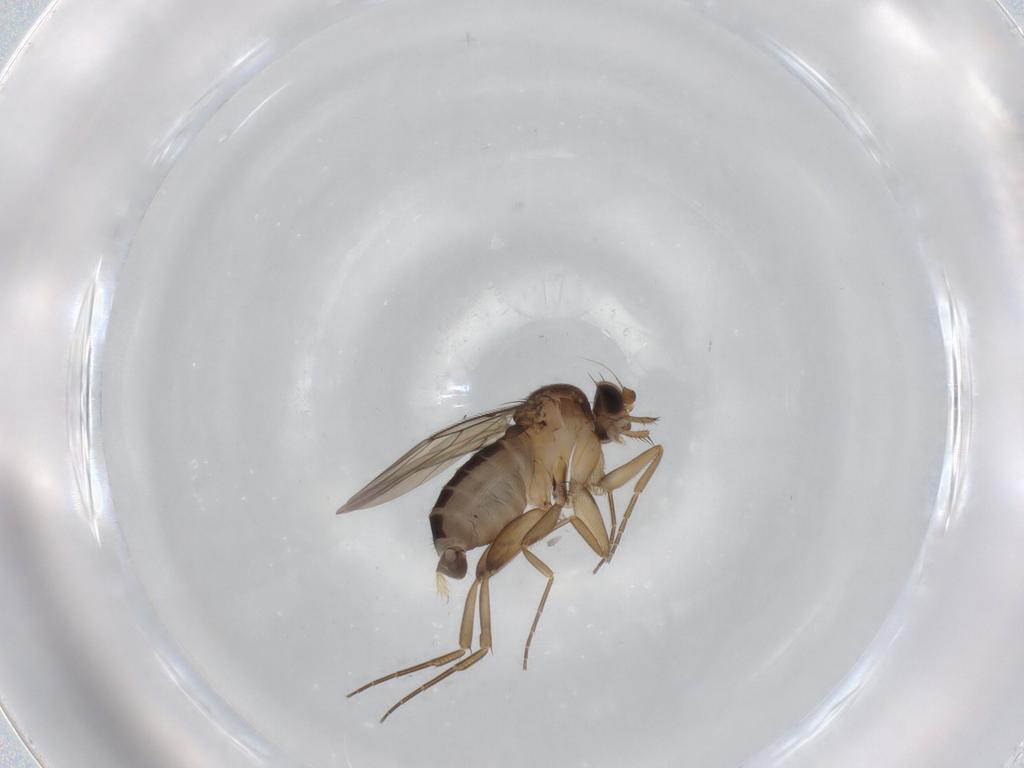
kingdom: Animalia
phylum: Arthropoda
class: Insecta
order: Diptera
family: Phoridae
